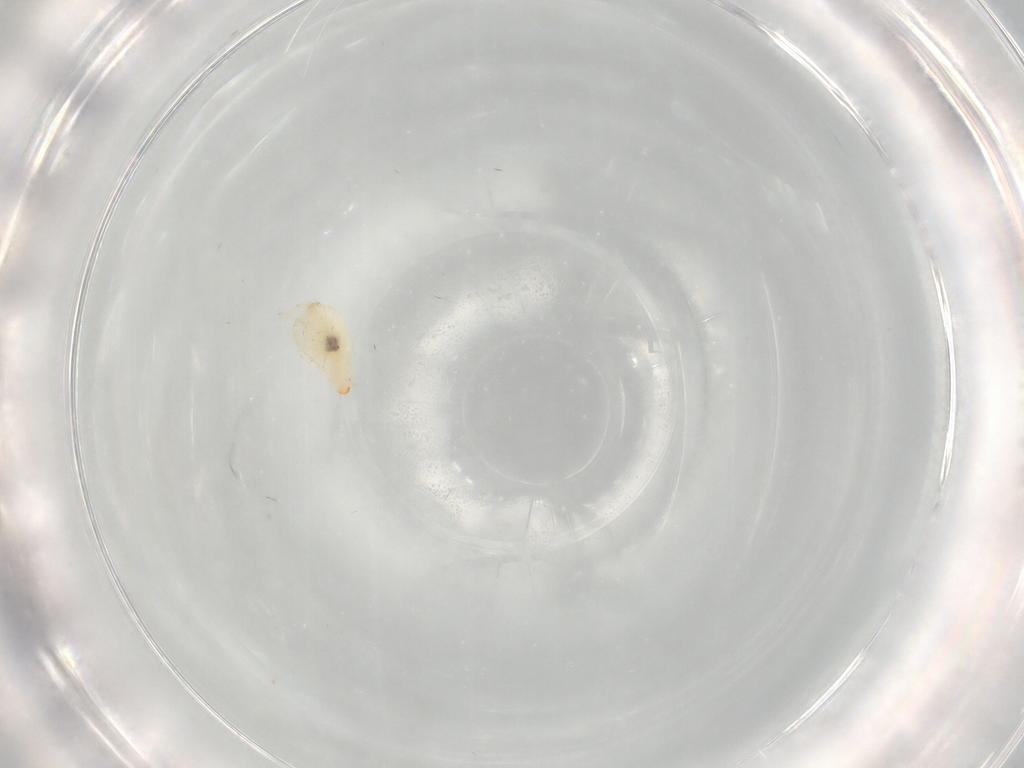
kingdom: Animalia
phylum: Arthropoda
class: Insecta
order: Diptera
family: Cecidomyiidae
